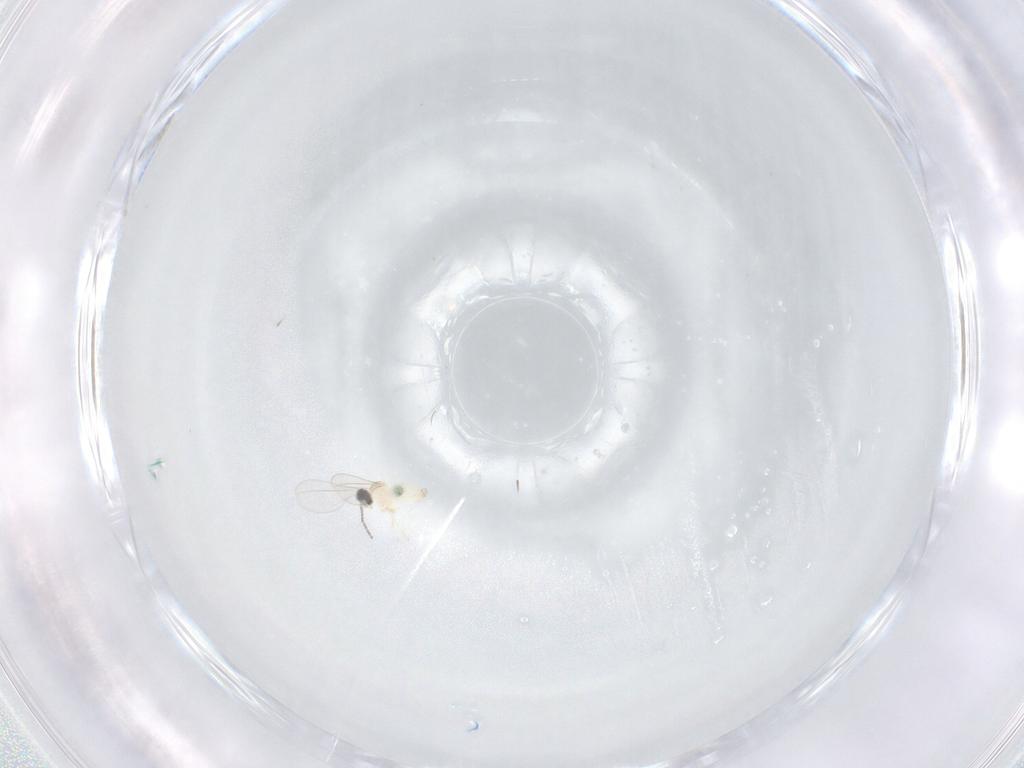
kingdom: Animalia
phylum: Arthropoda
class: Insecta
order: Diptera
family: Cecidomyiidae
